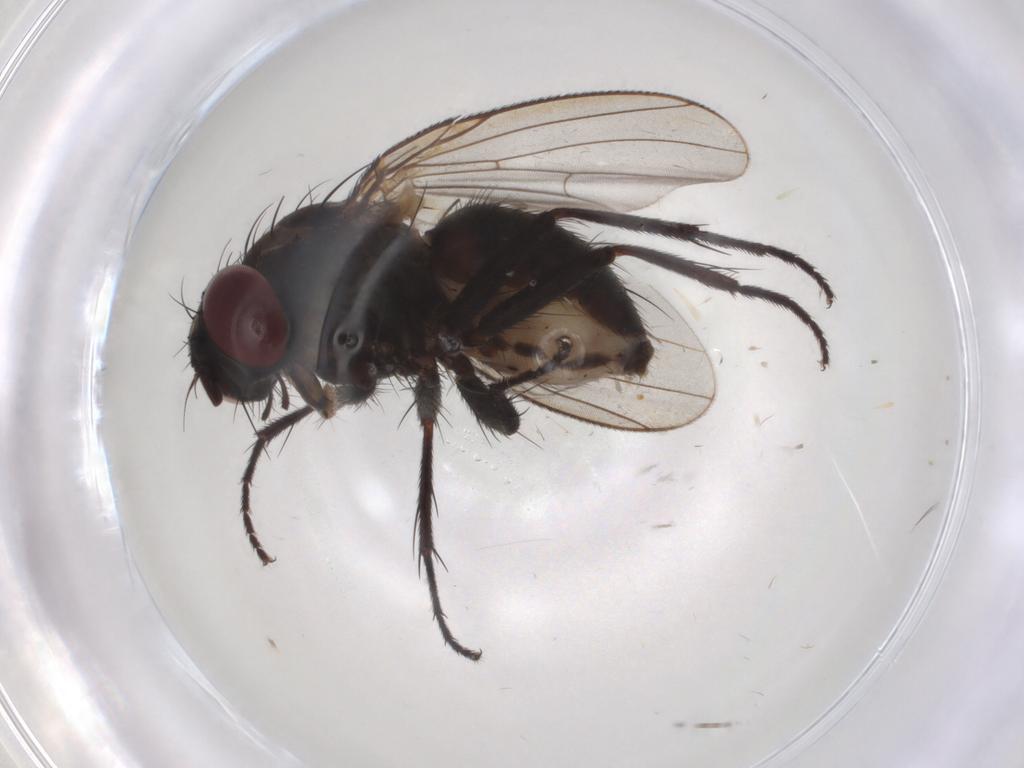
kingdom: Animalia
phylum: Arthropoda
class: Insecta
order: Diptera
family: Muscidae
